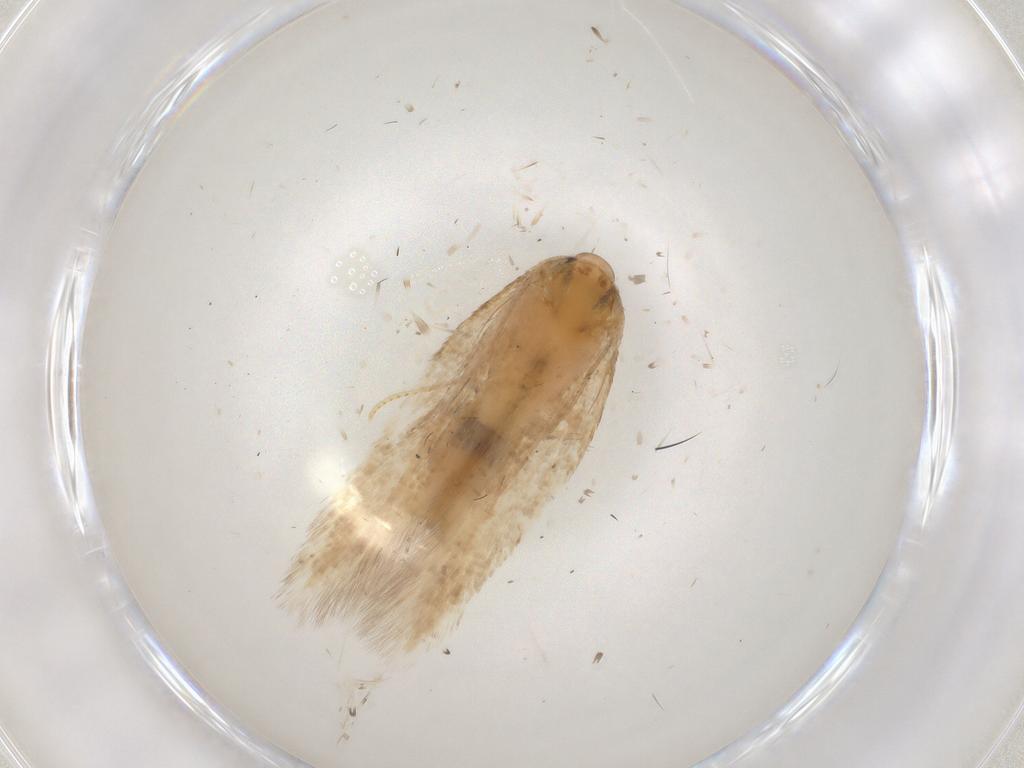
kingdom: Animalia
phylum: Arthropoda
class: Insecta
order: Lepidoptera
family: Cosmopterigidae
